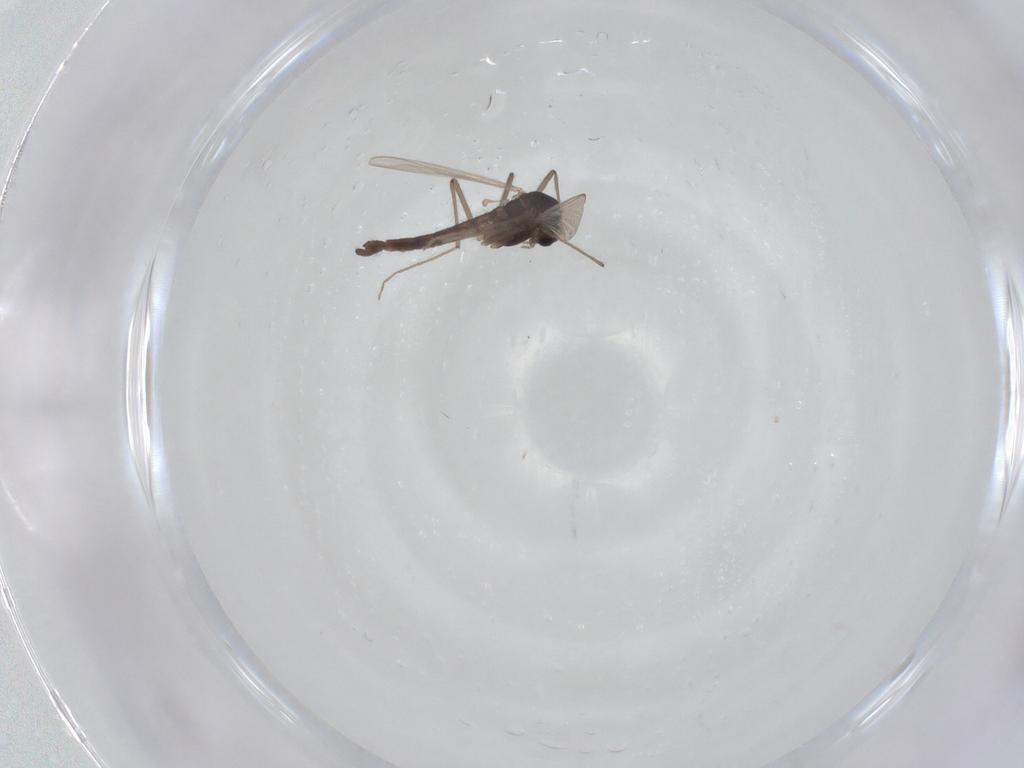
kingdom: Animalia
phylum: Arthropoda
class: Insecta
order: Diptera
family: Chironomidae
